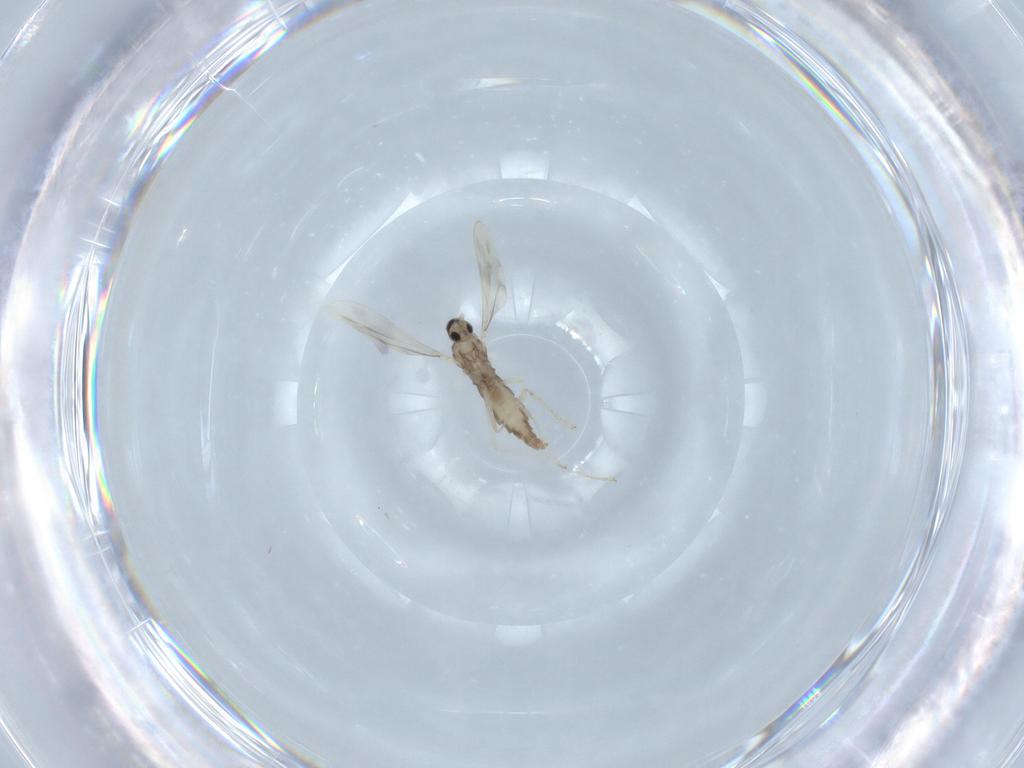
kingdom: Animalia
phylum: Arthropoda
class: Insecta
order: Diptera
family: Cecidomyiidae
